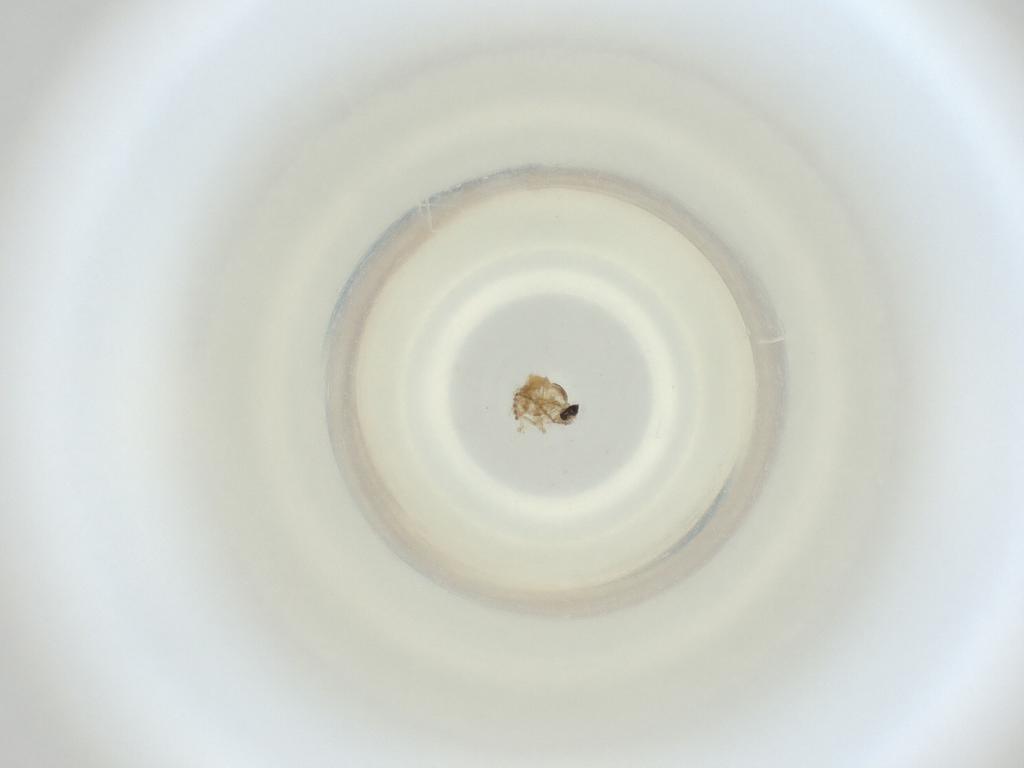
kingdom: Animalia
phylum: Arthropoda
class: Insecta
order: Diptera
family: Cecidomyiidae
